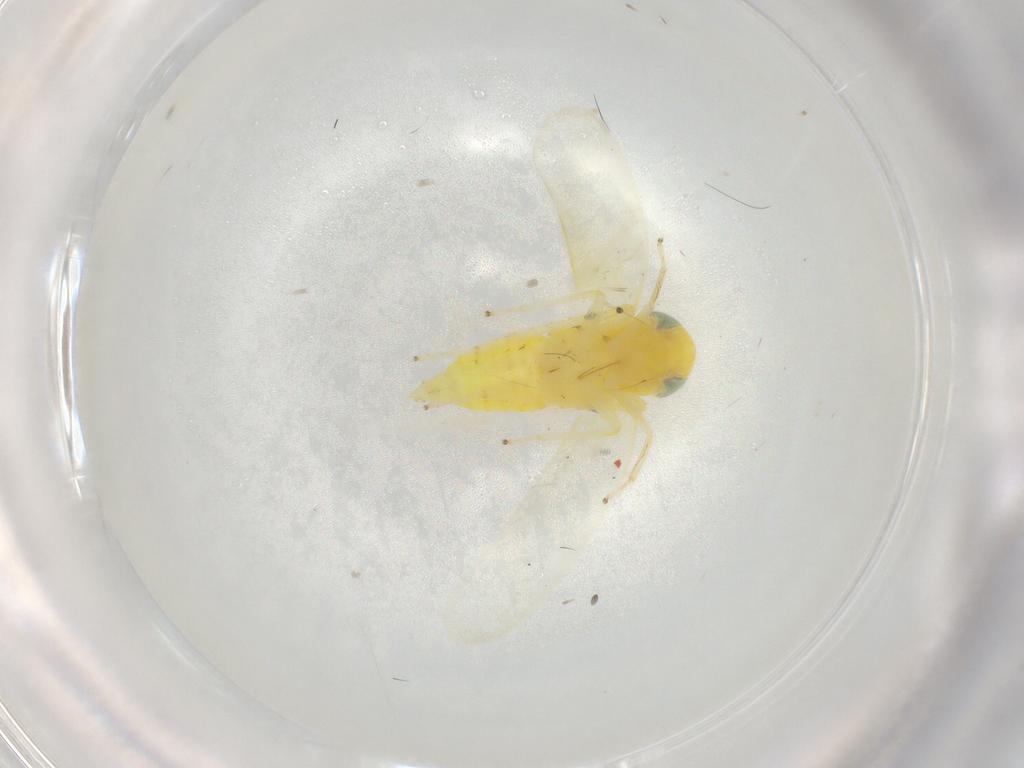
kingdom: Animalia
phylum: Arthropoda
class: Insecta
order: Hemiptera
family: Cicadellidae
